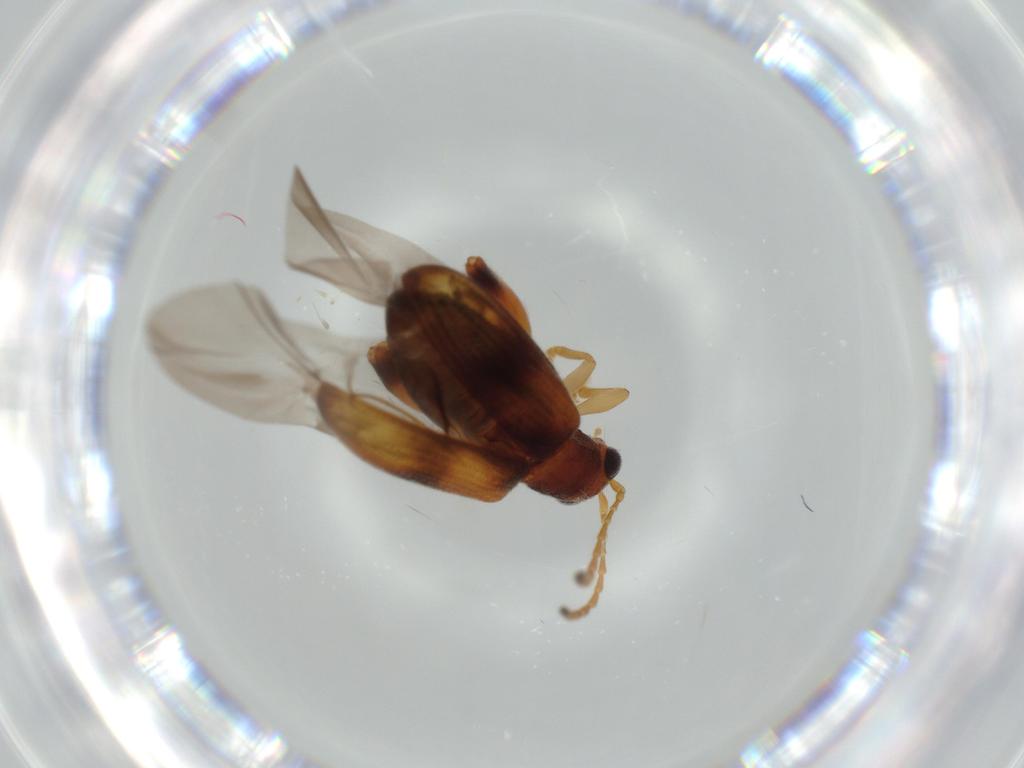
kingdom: Animalia
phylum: Arthropoda
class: Insecta
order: Coleoptera
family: Chrysomelidae
